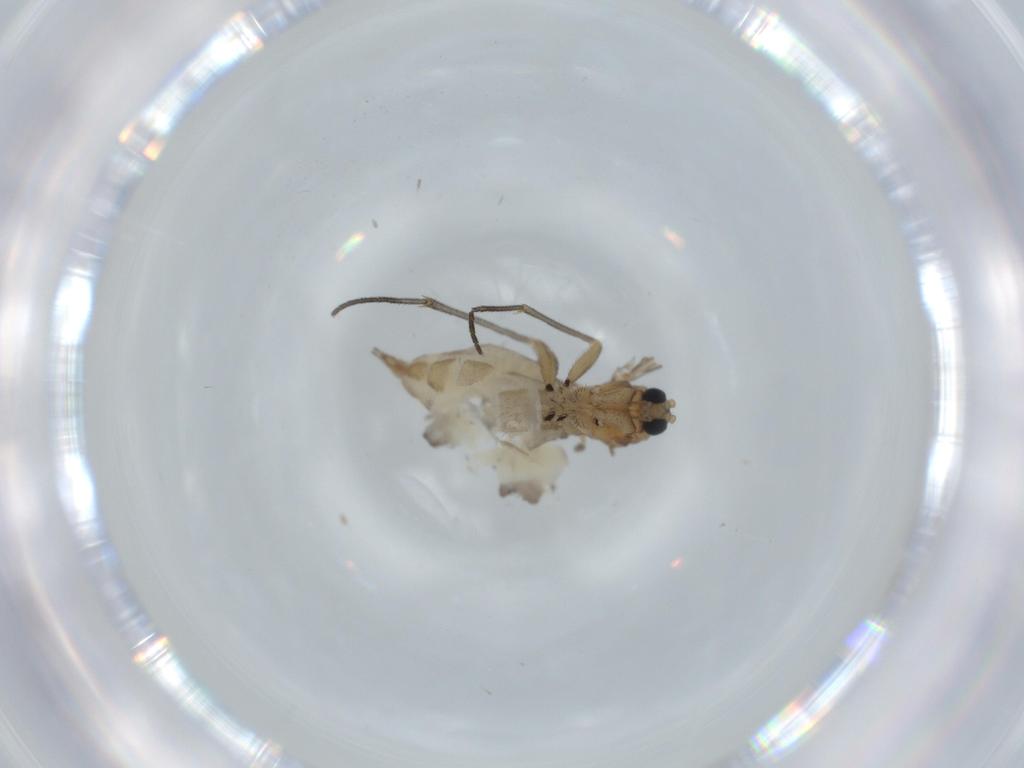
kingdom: Animalia
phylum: Arthropoda
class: Insecta
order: Diptera
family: Sciaridae
